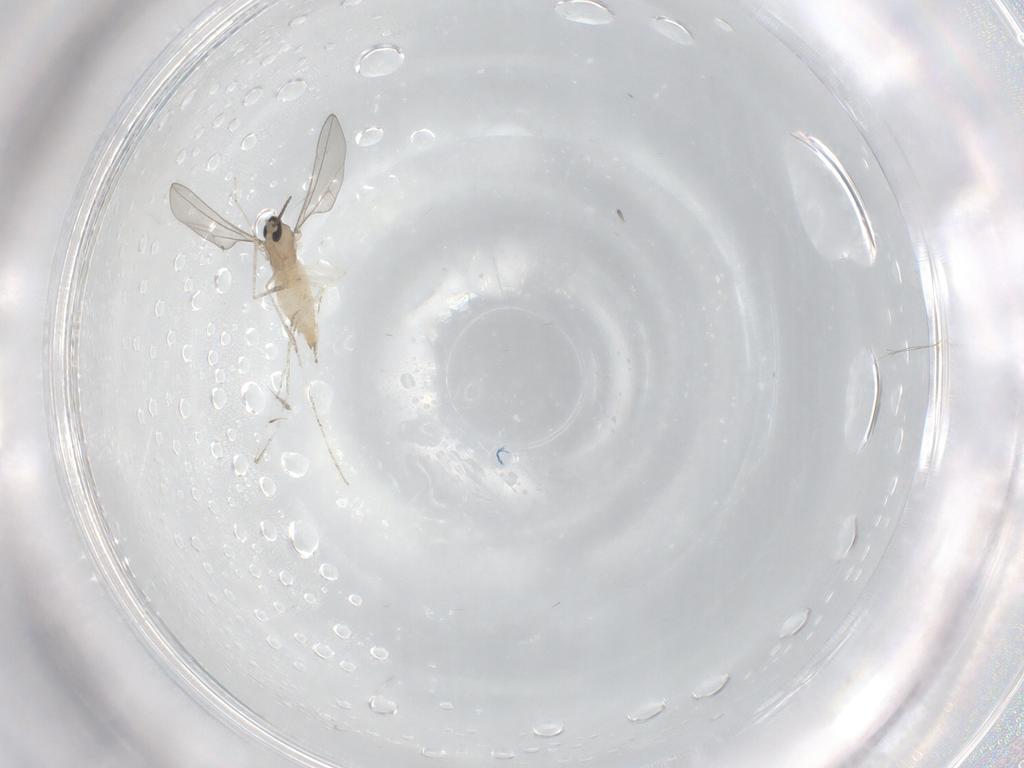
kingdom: Animalia
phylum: Arthropoda
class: Insecta
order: Diptera
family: Cecidomyiidae
